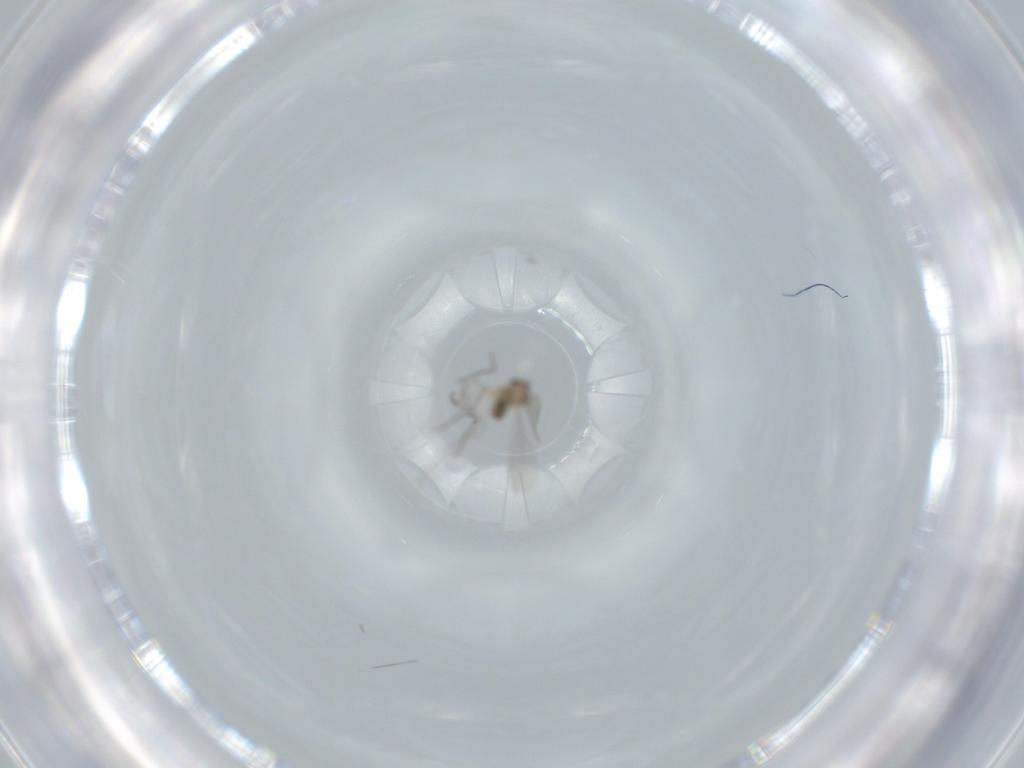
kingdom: Animalia
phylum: Arthropoda
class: Insecta
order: Diptera
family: Cecidomyiidae
